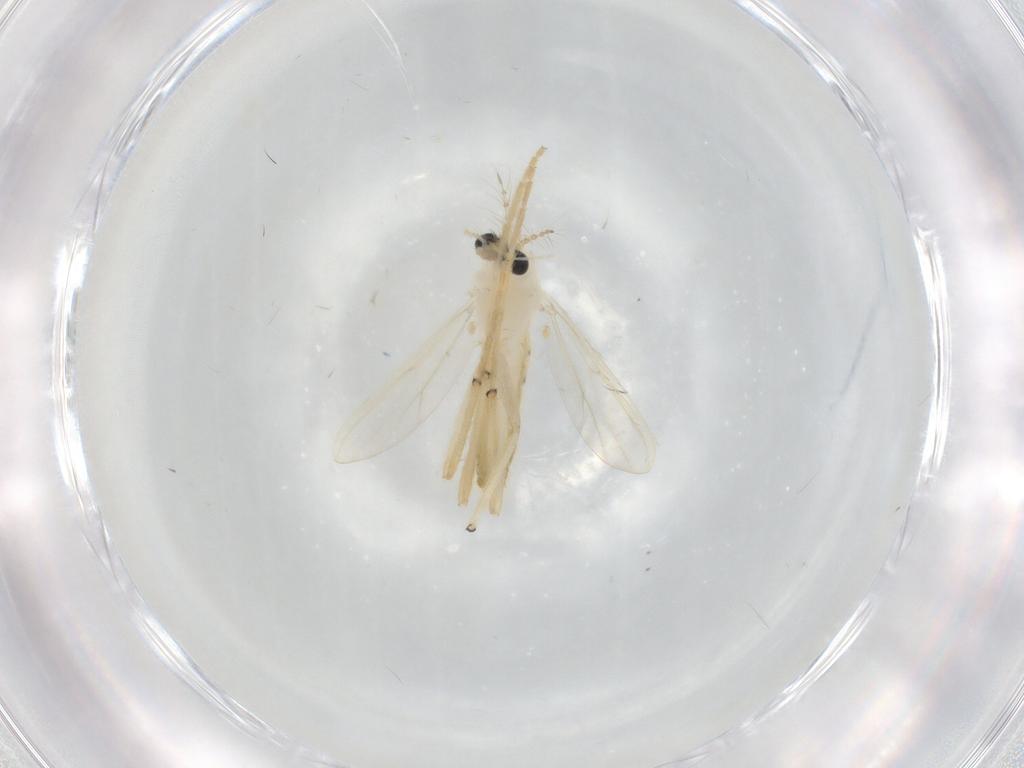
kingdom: Animalia
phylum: Arthropoda
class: Insecta
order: Diptera
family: Chironomidae
